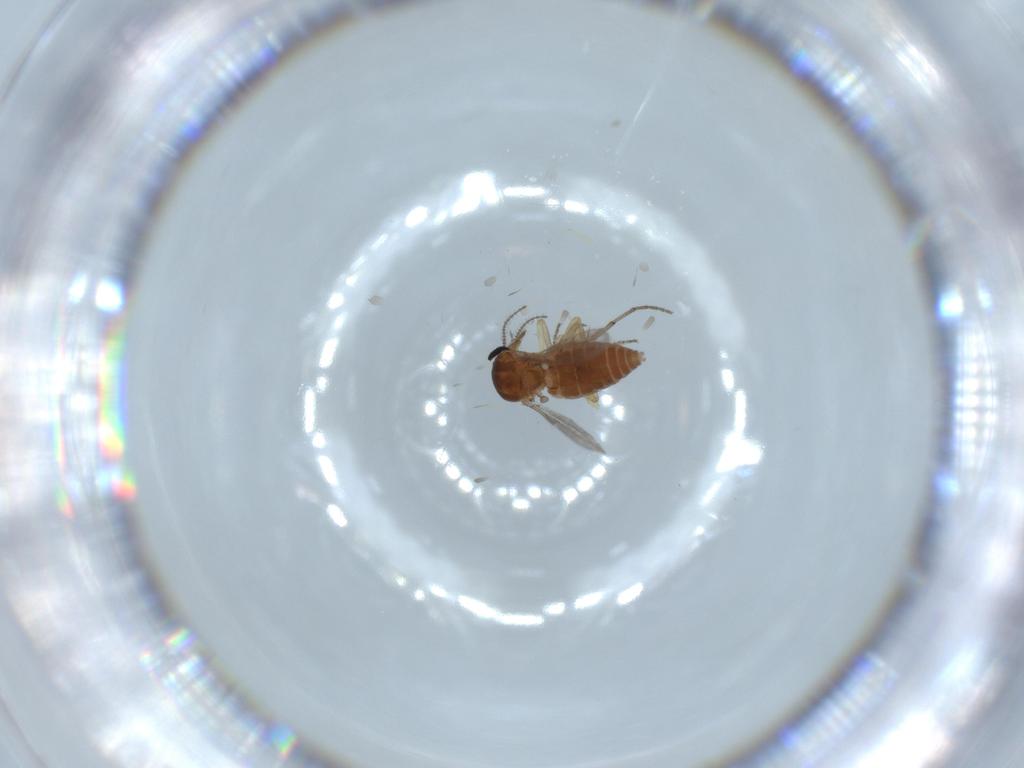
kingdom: Animalia
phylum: Arthropoda
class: Insecta
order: Diptera
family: Ceratopogonidae
